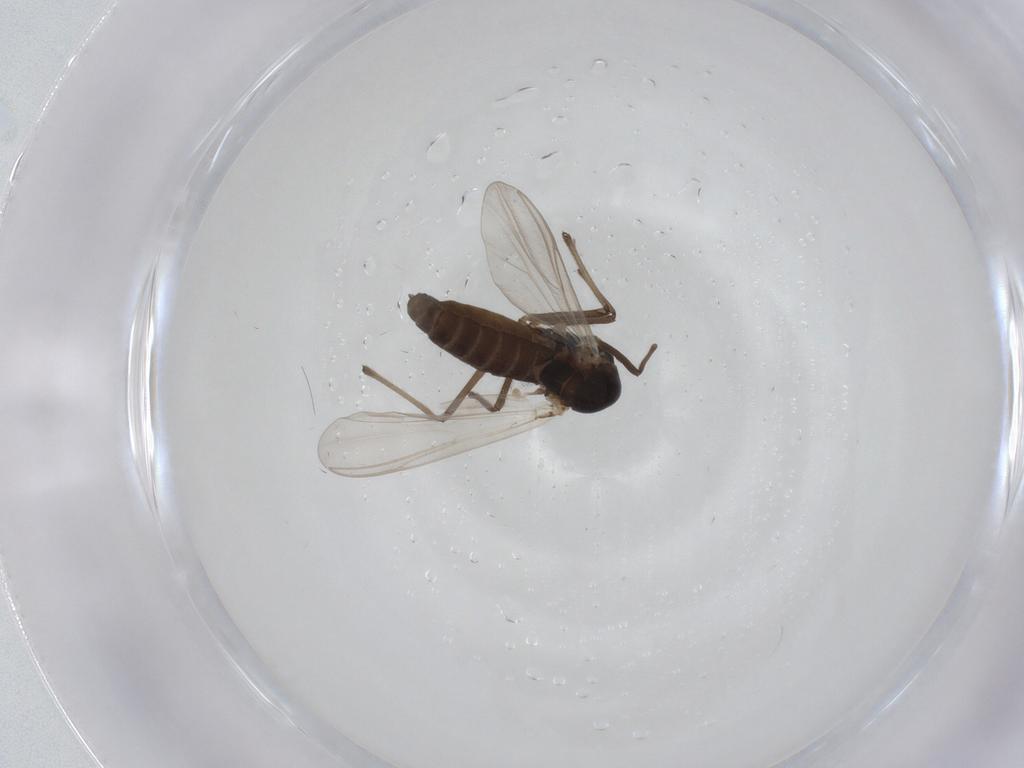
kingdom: Animalia
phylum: Arthropoda
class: Insecta
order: Diptera
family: Chironomidae
